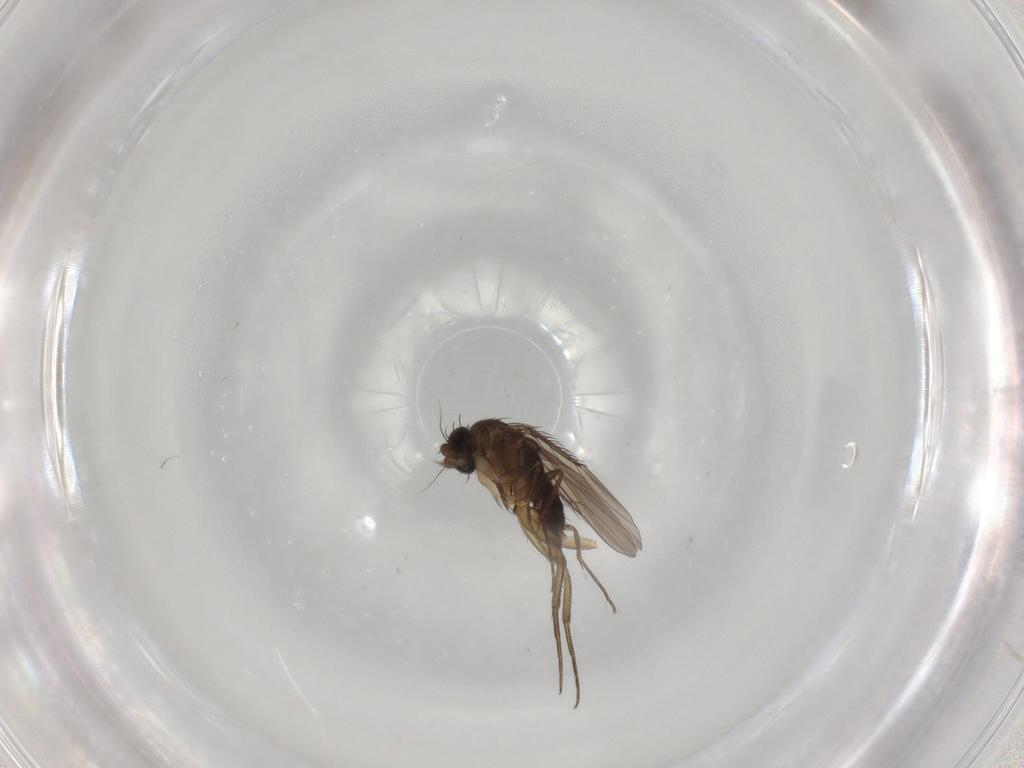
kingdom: Animalia
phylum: Arthropoda
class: Insecta
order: Diptera
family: Phoridae
